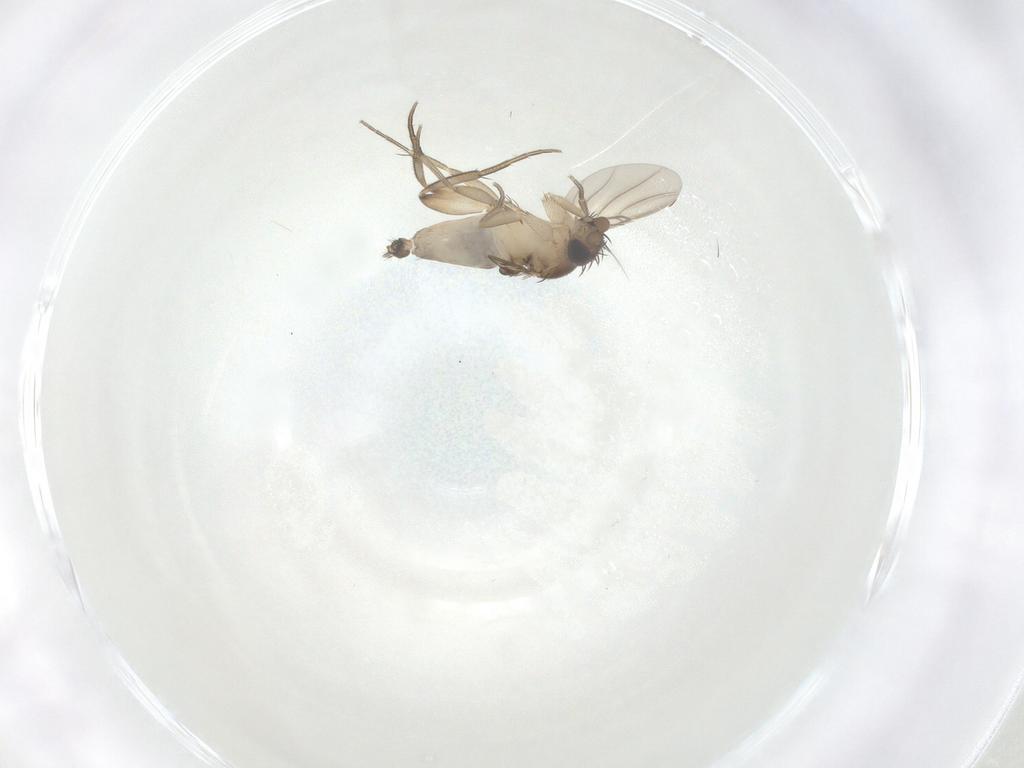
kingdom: Animalia
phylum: Arthropoda
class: Insecta
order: Diptera
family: Phoridae
